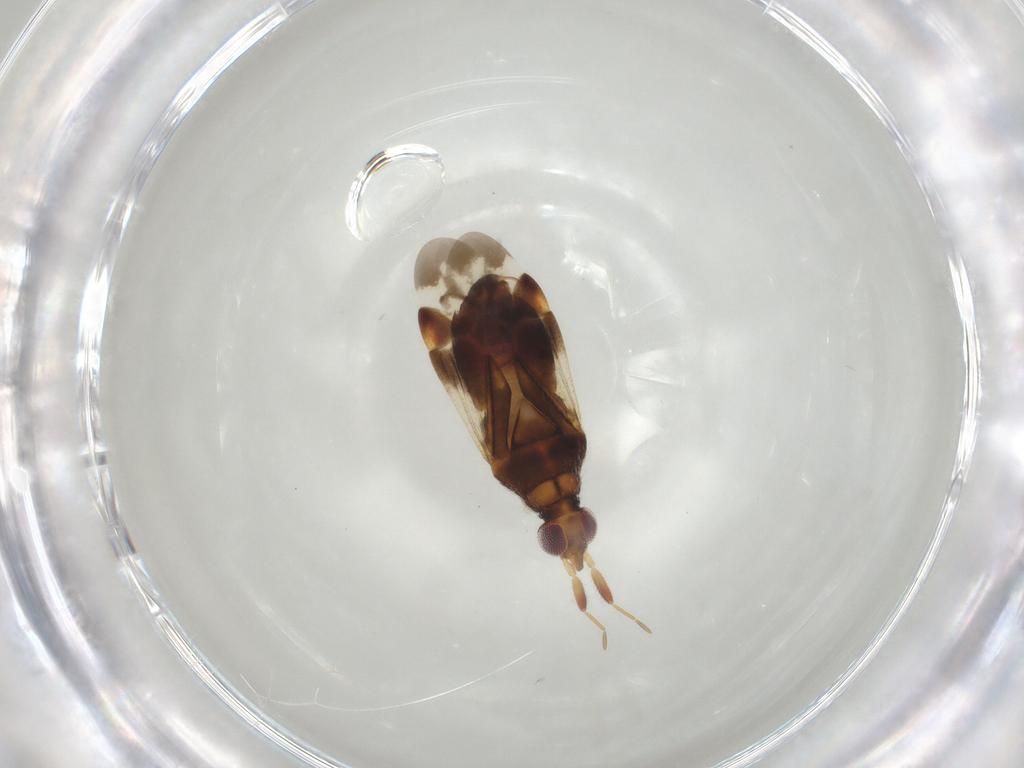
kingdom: Animalia
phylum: Arthropoda
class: Insecta
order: Hemiptera
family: Miridae
